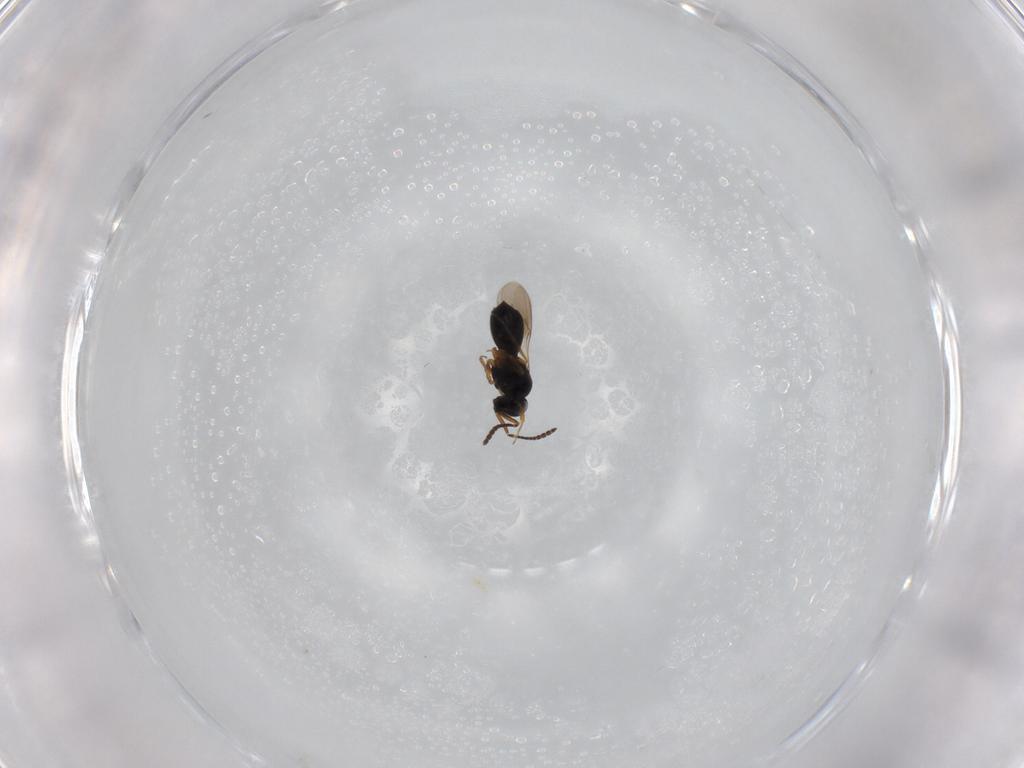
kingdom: Animalia
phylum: Arthropoda
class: Insecta
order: Hymenoptera
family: Scelionidae
